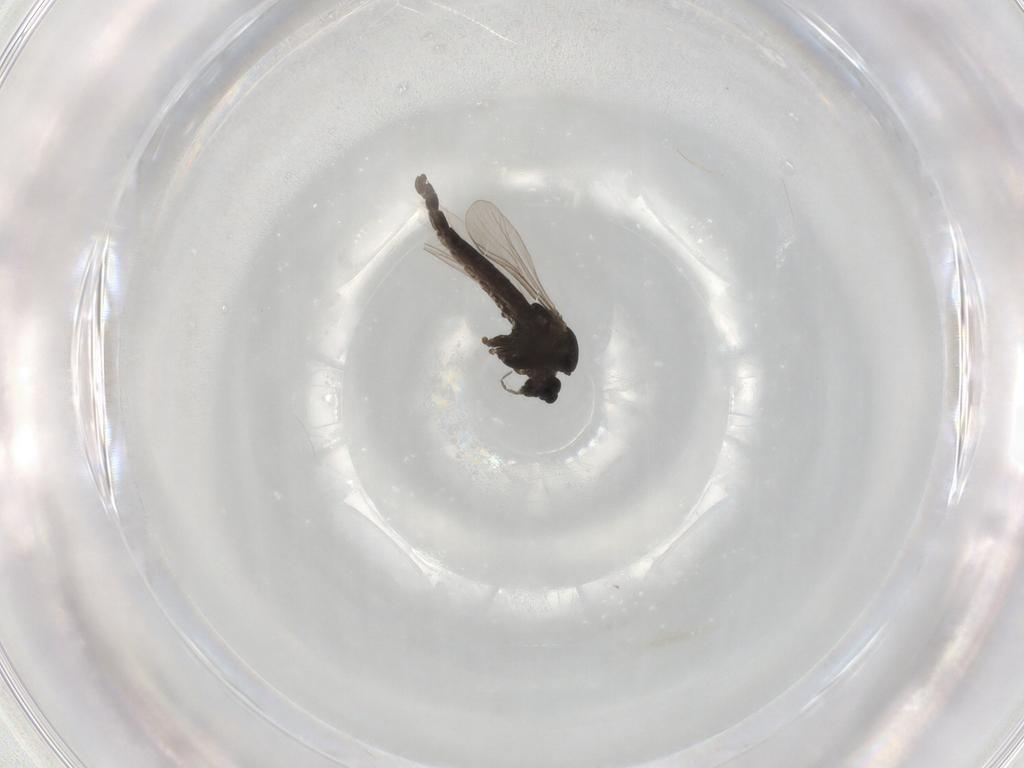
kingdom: Animalia
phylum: Arthropoda
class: Insecta
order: Diptera
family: Chironomidae
